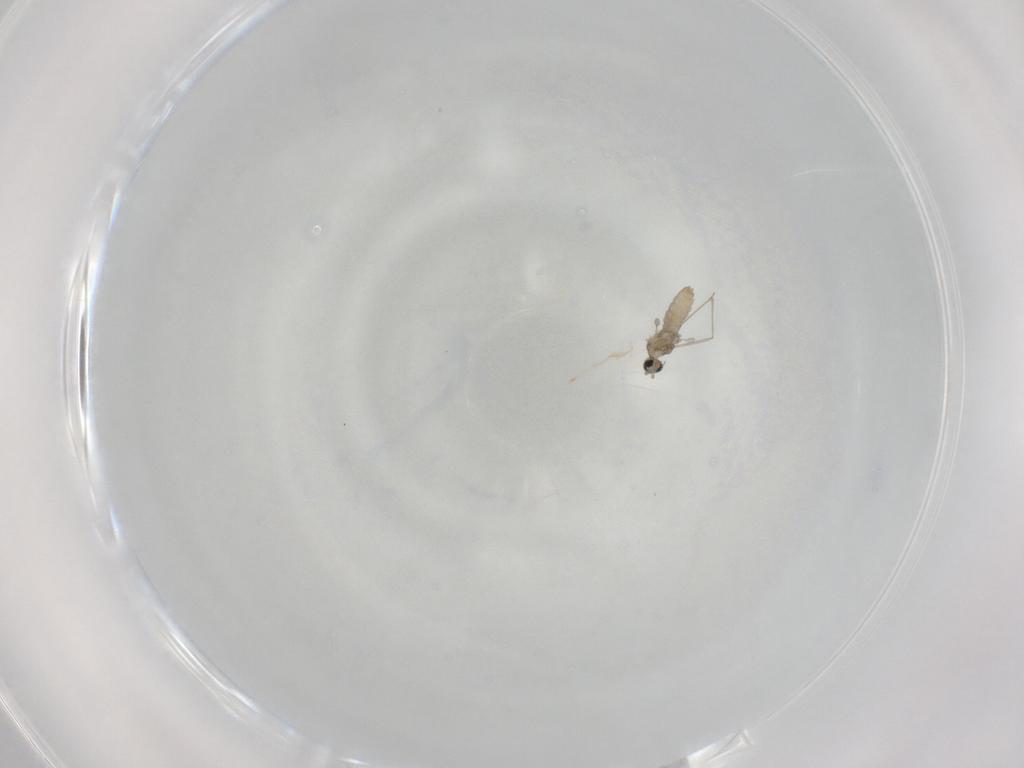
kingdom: Animalia
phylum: Arthropoda
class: Insecta
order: Diptera
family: Cecidomyiidae
